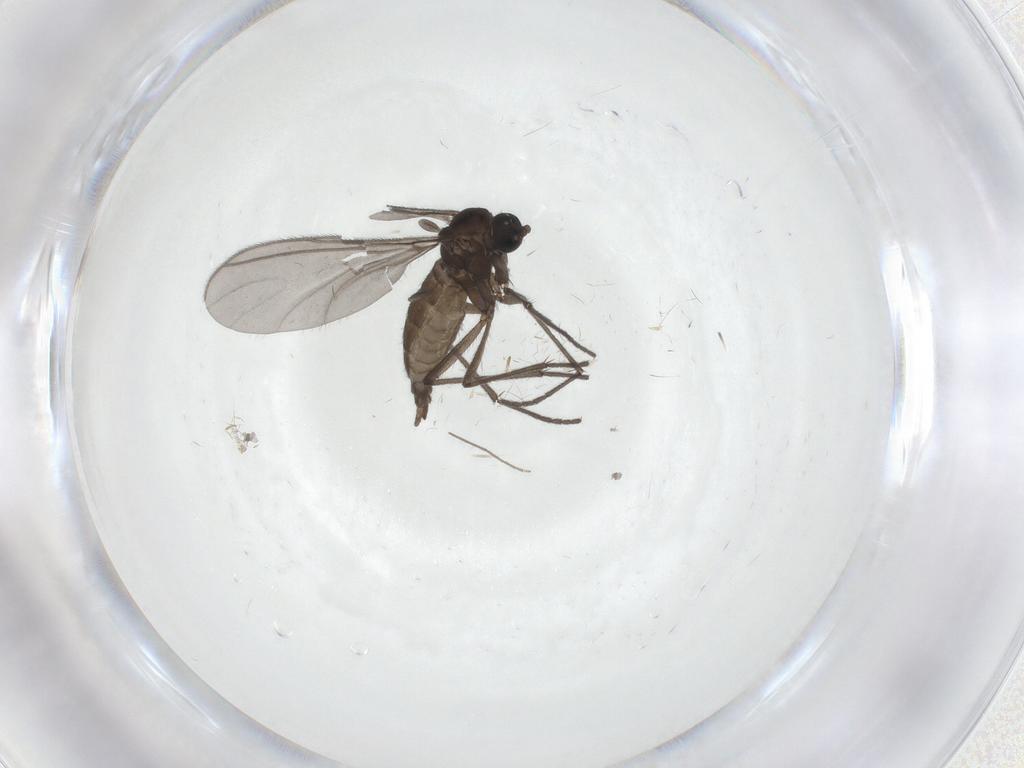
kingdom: Animalia
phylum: Arthropoda
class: Insecta
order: Diptera
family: Sciaridae
